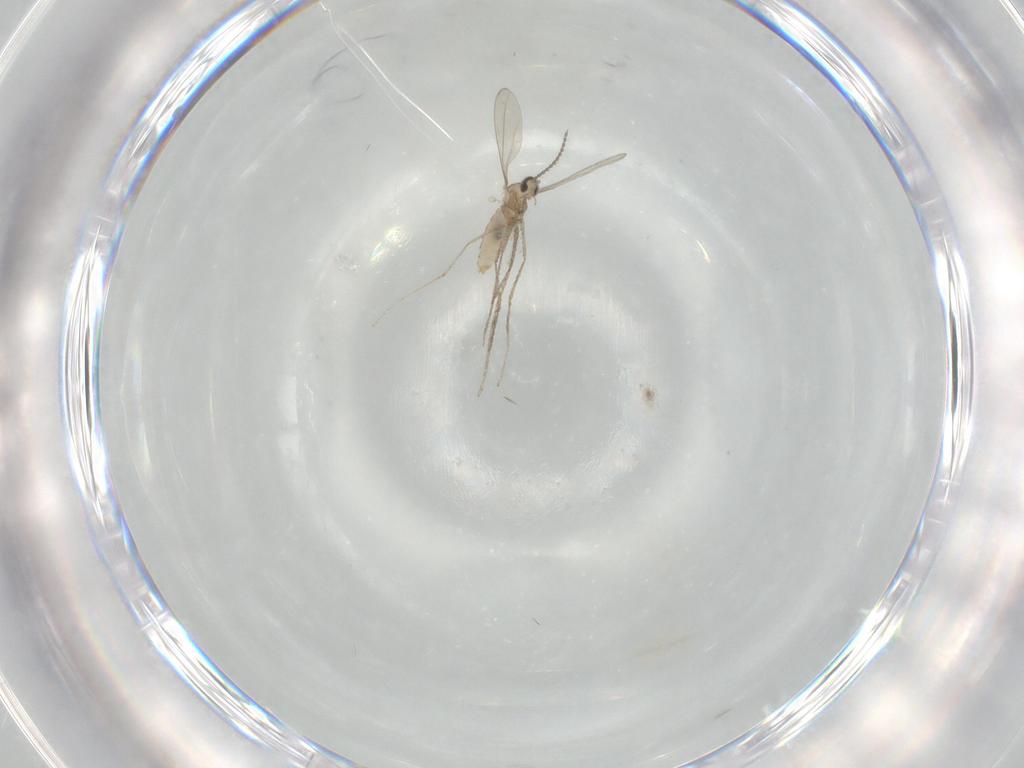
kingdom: Animalia
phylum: Arthropoda
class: Insecta
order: Diptera
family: Cecidomyiidae
